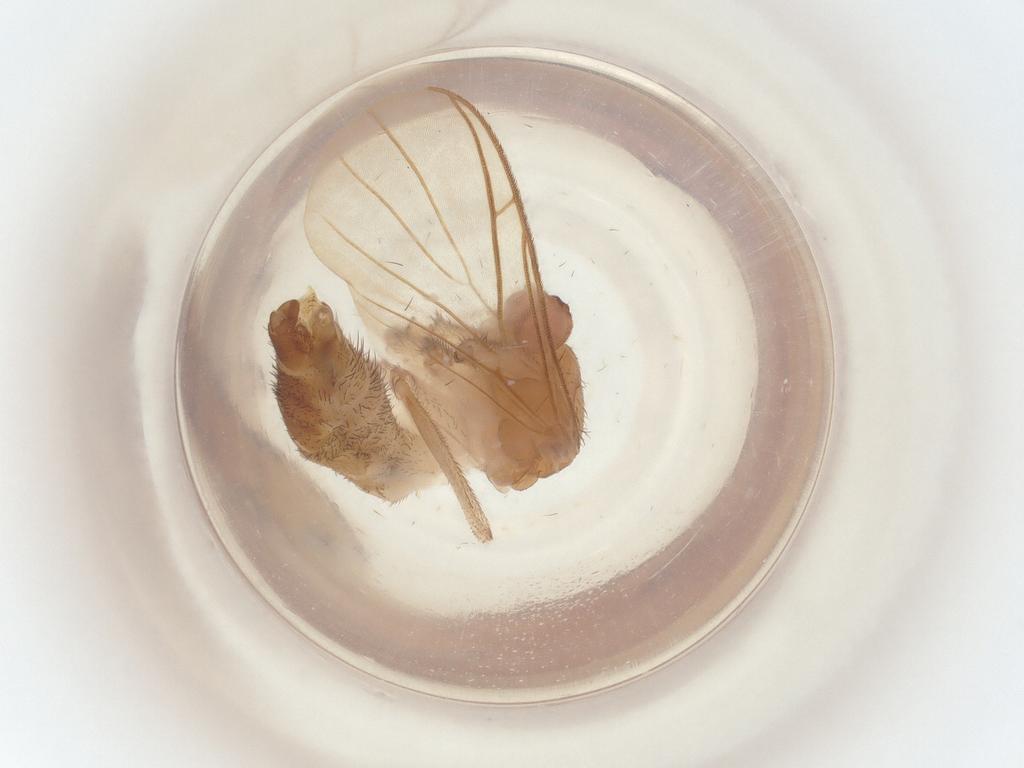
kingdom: Animalia
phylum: Arthropoda
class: Insecta
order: Diptera
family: Keroplatidae
